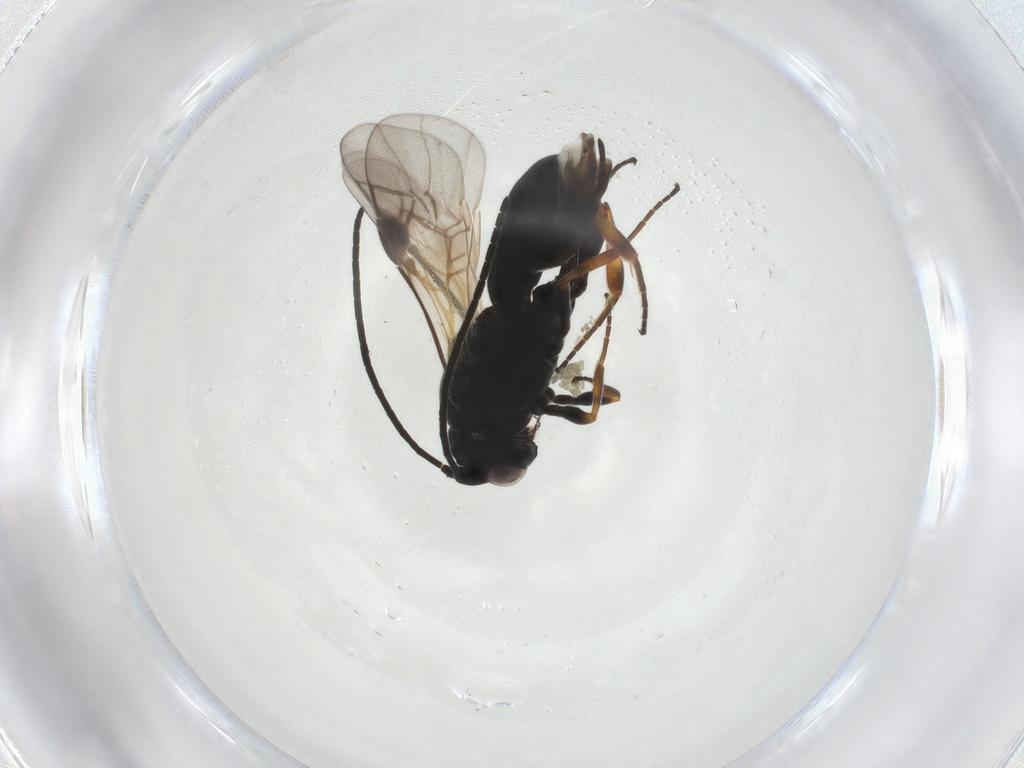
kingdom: Animalia
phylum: Arthropoda
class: Insecta
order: Hymenoptera
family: Braconidae
